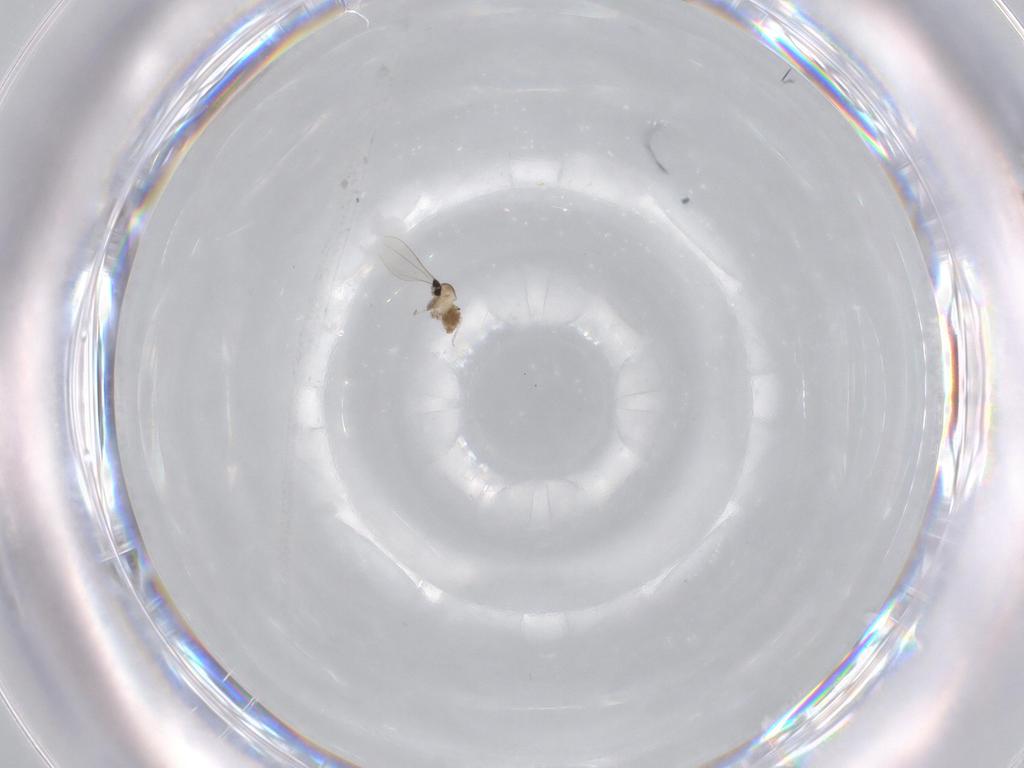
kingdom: Animalia
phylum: Arthropoda
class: Insecta
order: Diptera
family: Cecidomyiidae
